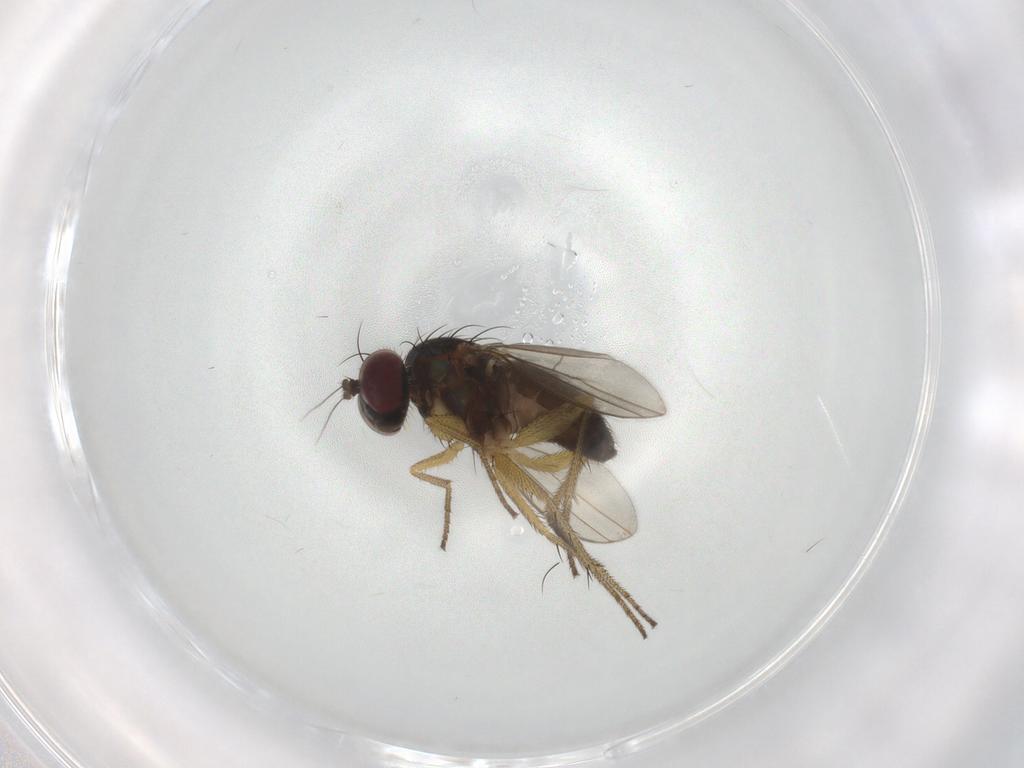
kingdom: Animalia
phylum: Arthropoda
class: Insecta
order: Diptera
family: Dolichopodidae
